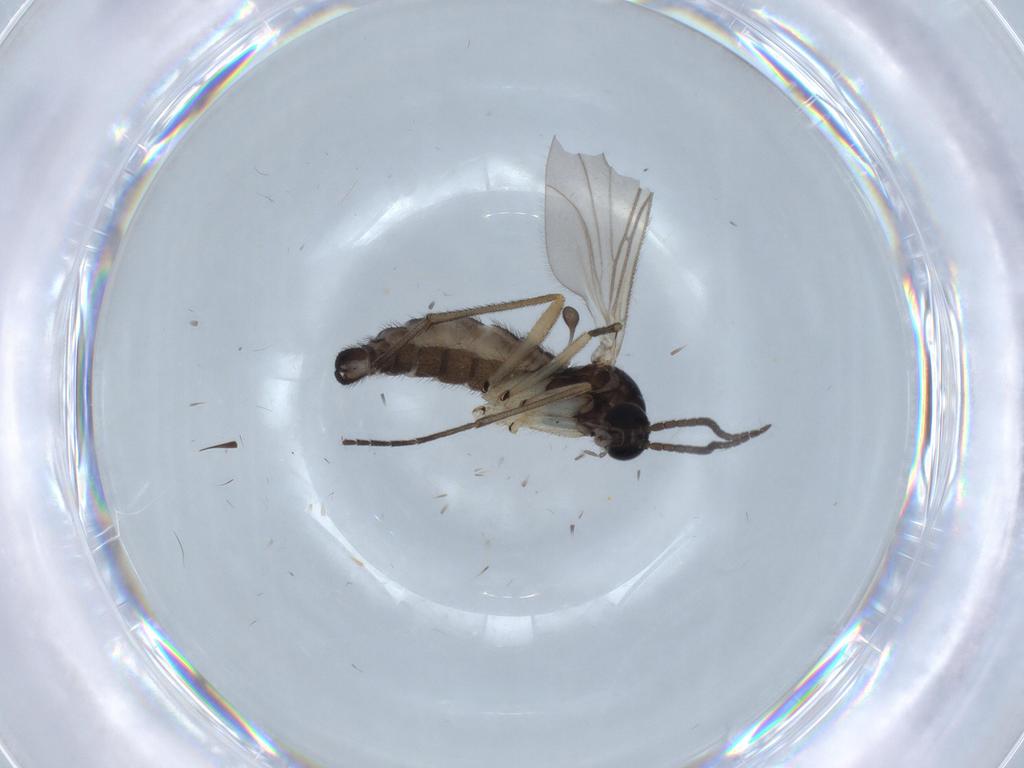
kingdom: Animalia
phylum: Arthropoda
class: Insecta
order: Diptera
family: Sciaridae
